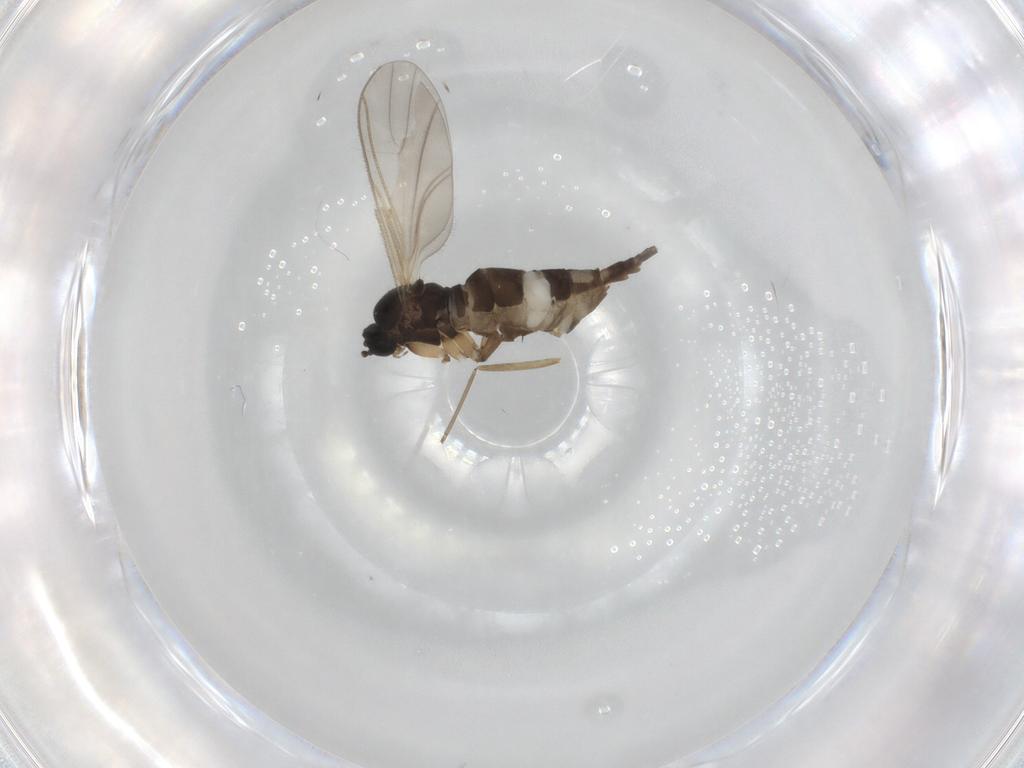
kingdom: Animalia
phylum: Arthropoda
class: Insecta
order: Diptera
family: Sciaridae
